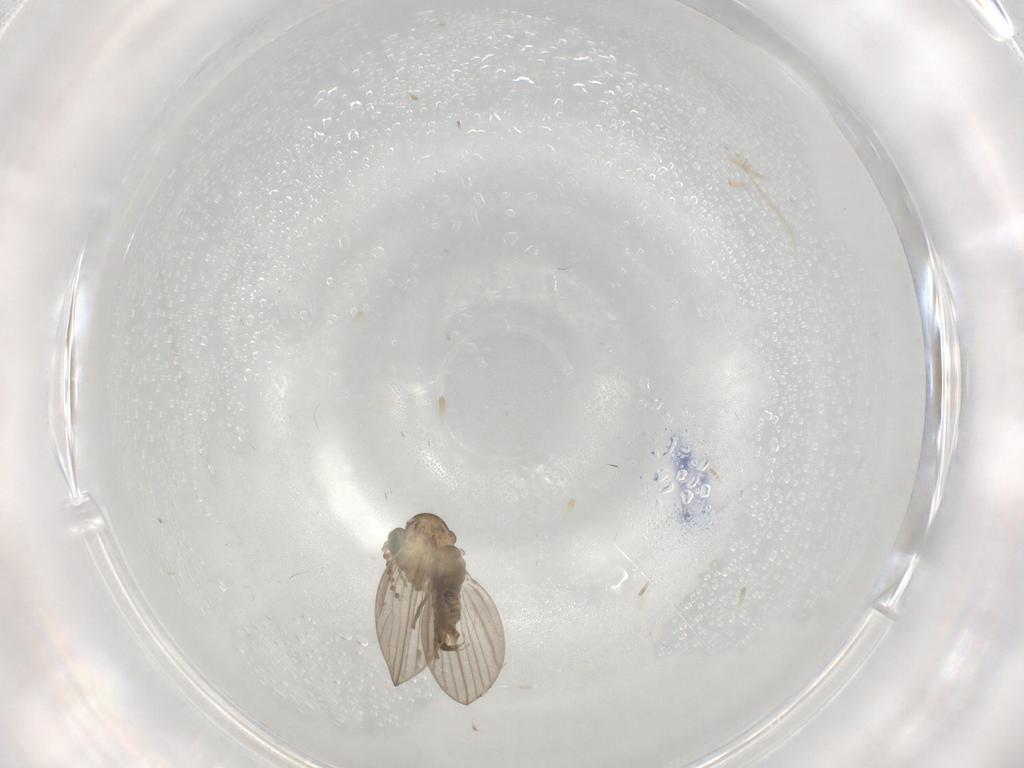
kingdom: Animalia
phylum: Arthropoda
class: Insecta
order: Diptera
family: Psychodidae
